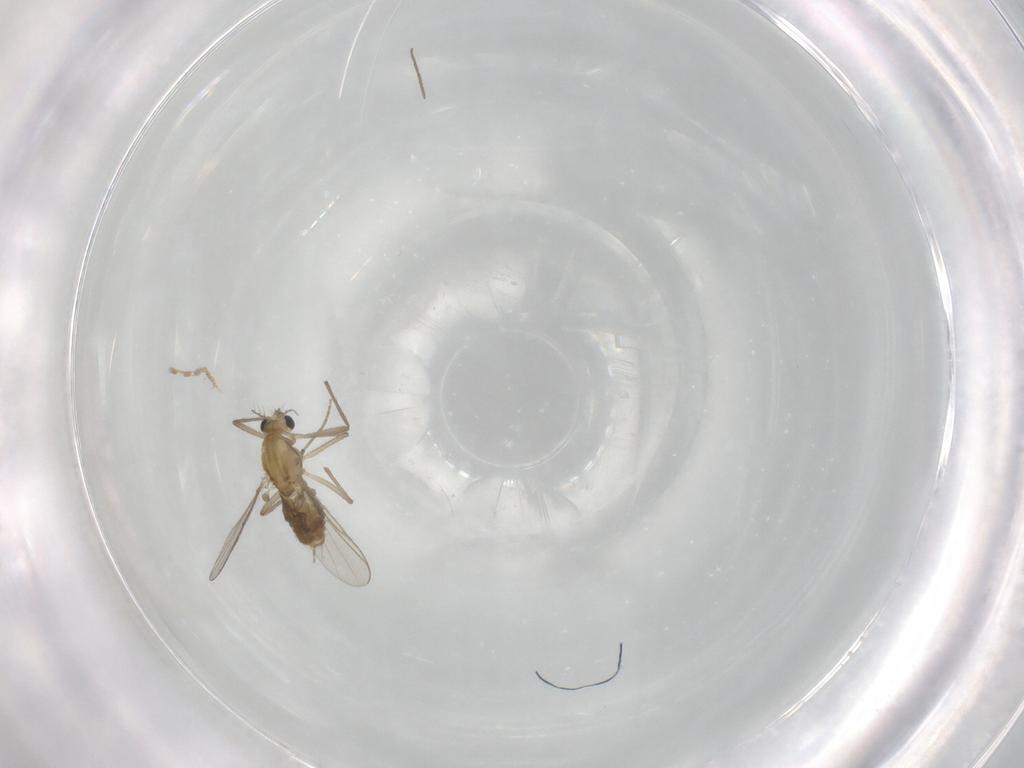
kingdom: Animalia
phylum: Arthropoda
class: Insecta
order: Diptera
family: Chironomidae
